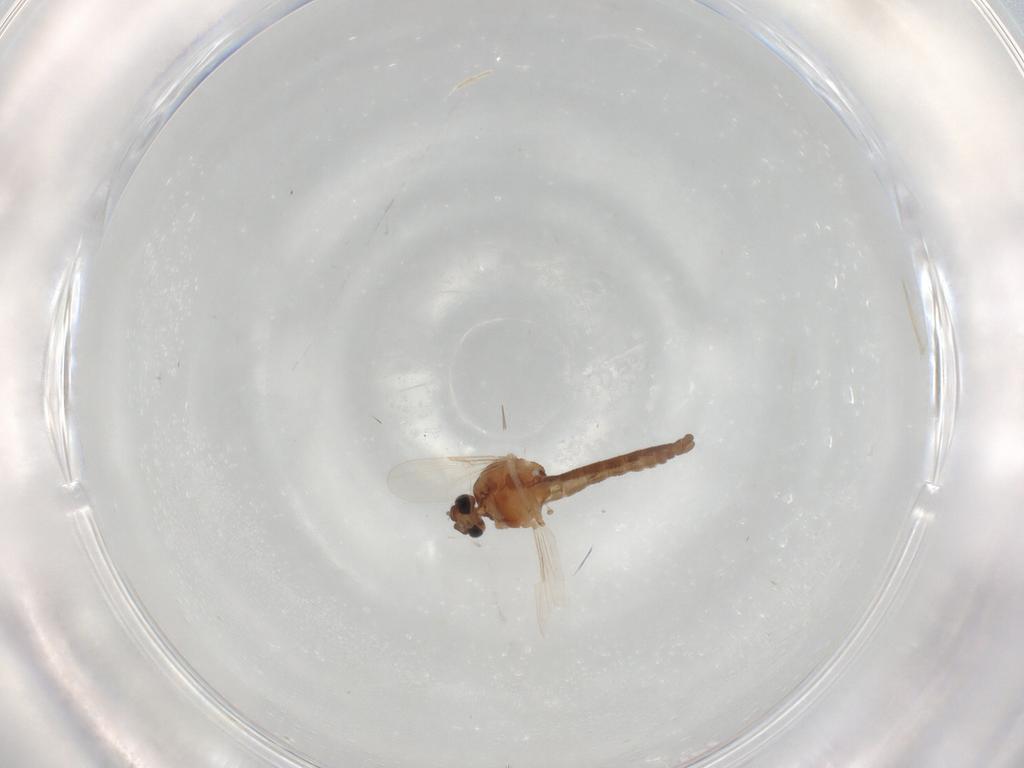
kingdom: Animalia
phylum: Arthropoda
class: Insecta
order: Diptera
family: Ceratopogonidae
